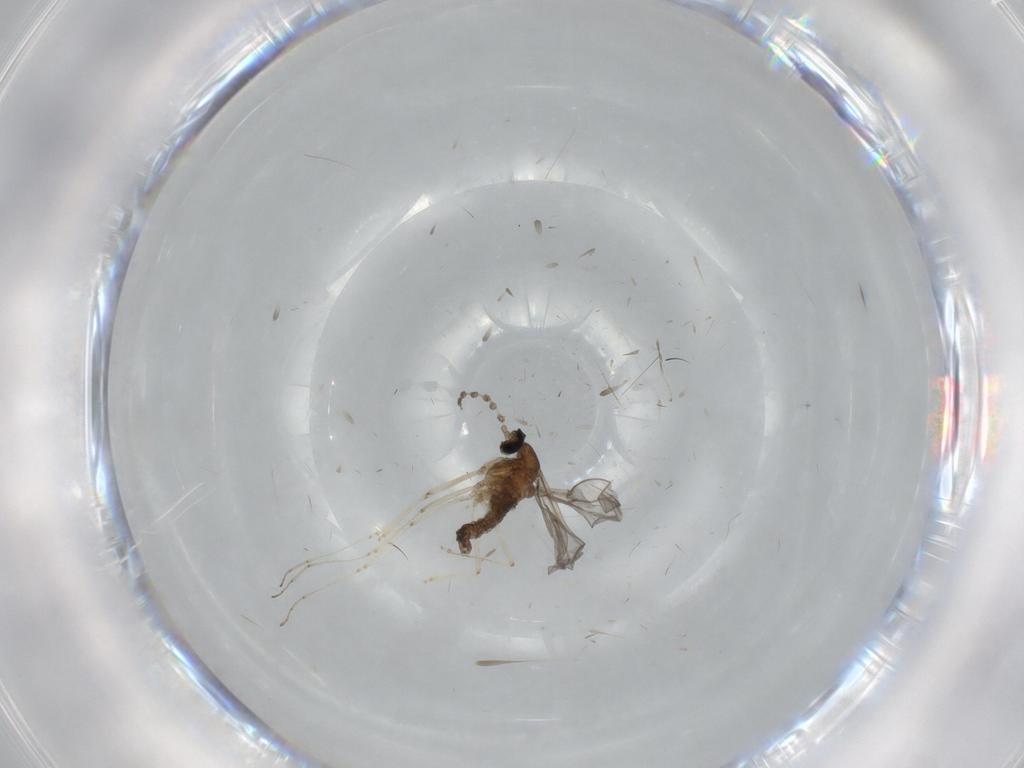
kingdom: Animalia
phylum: Arthropoda
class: Insecta
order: Diptera
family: Cecidomyiidae
